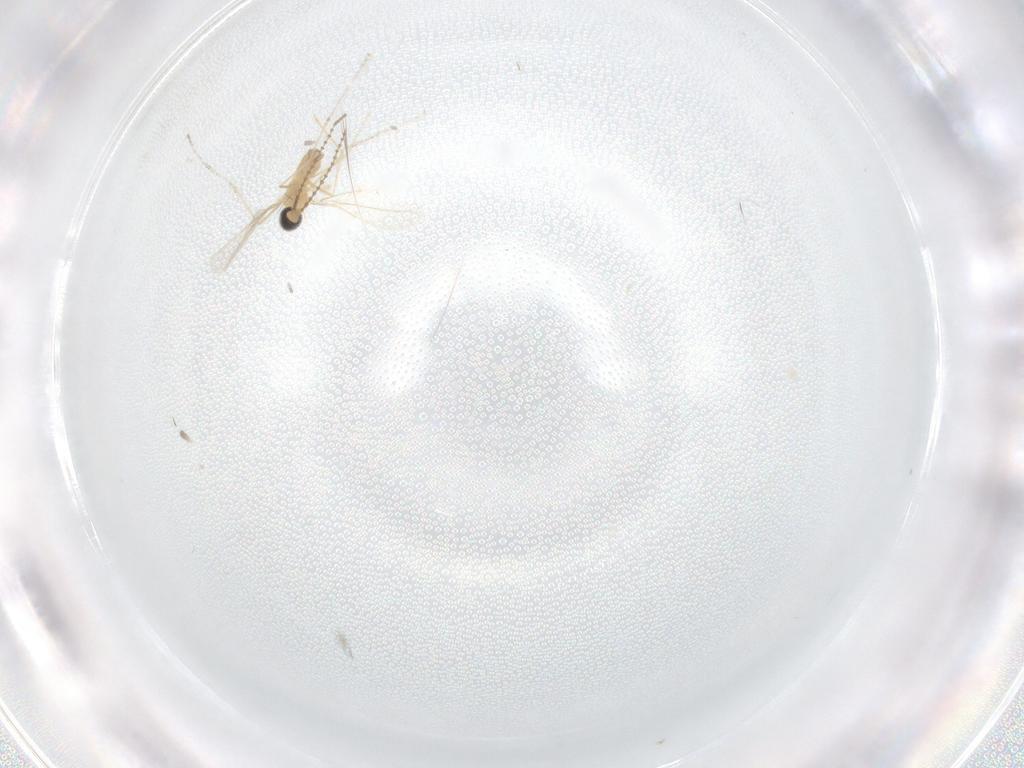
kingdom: Animalia
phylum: Arthropoda
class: Insecta
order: Diptera
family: Cecidomyiidae
